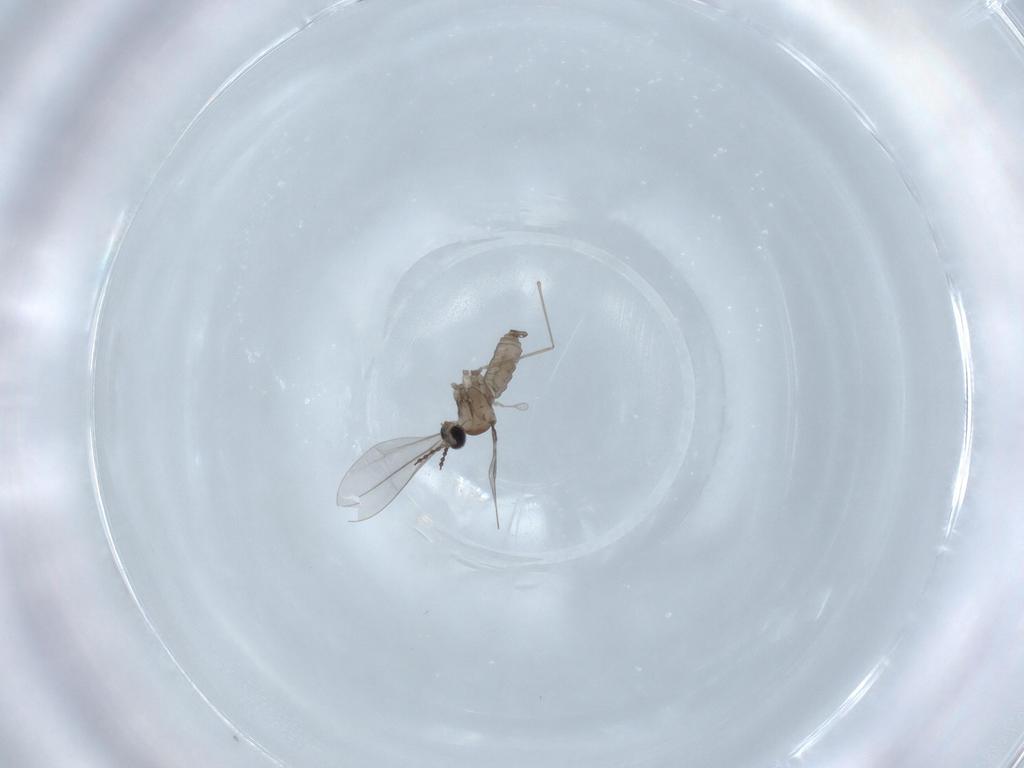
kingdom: Animalia
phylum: Arthropoda
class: Insecta
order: Diptera
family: Sciaridae
